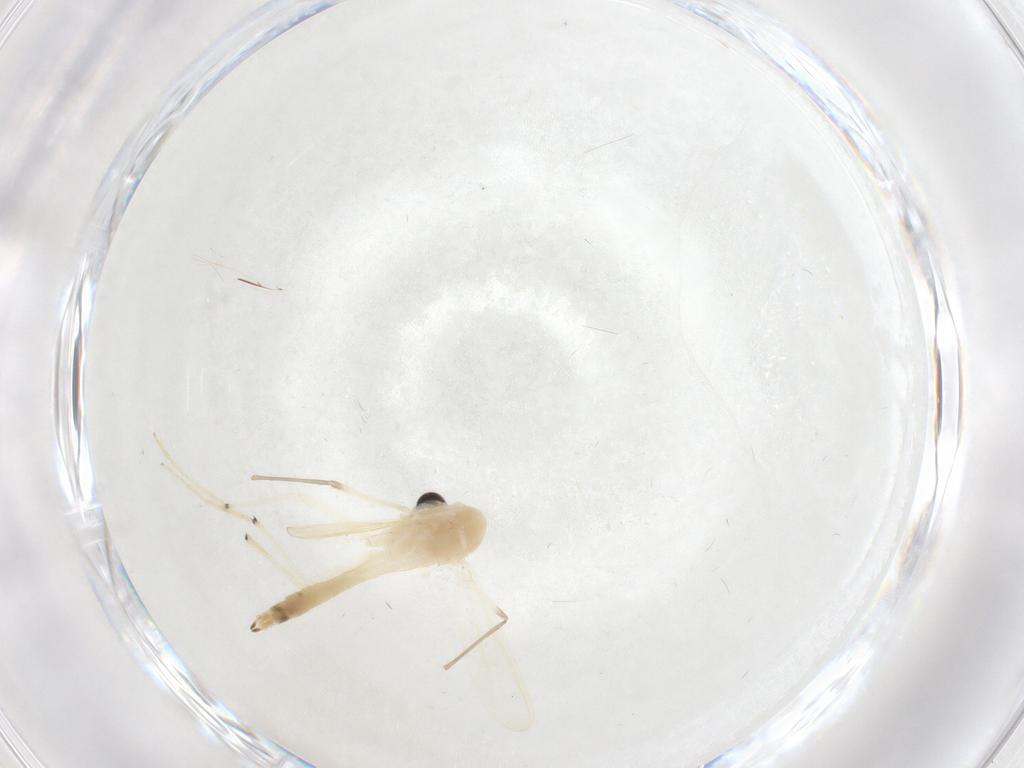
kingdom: Animalia
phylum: Arthropoda
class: Insecta
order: Diptera
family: Chironomidae
